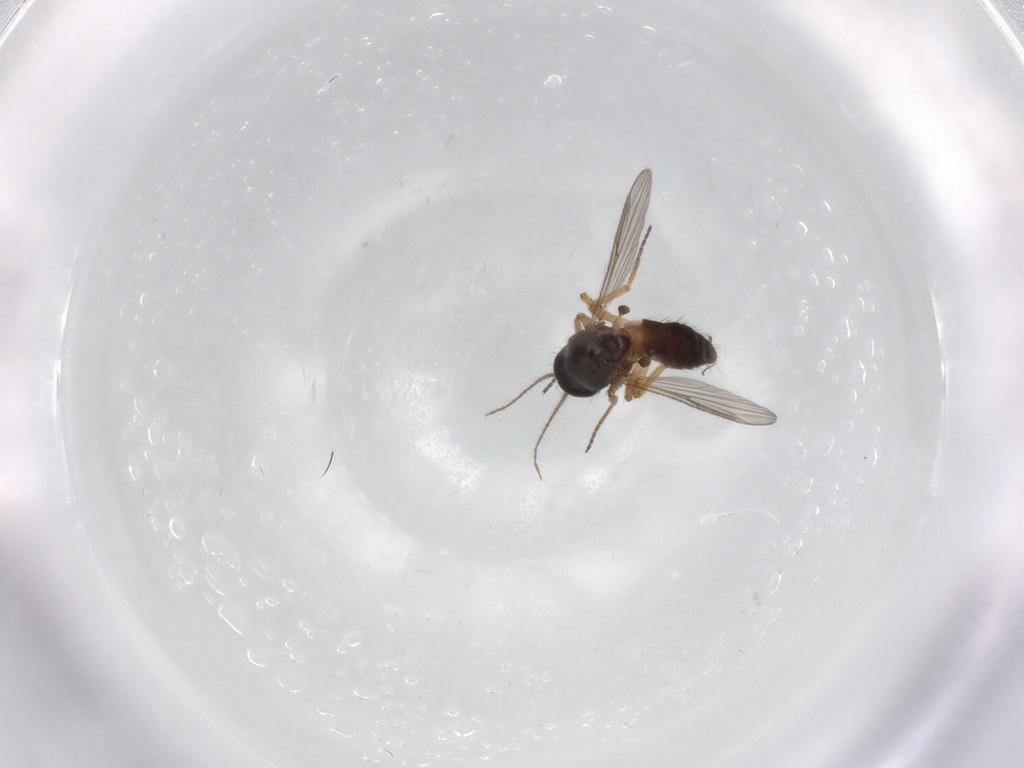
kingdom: Animalia
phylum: Arthropoda
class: Insecta
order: Diptera
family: Ceratopogonidae
